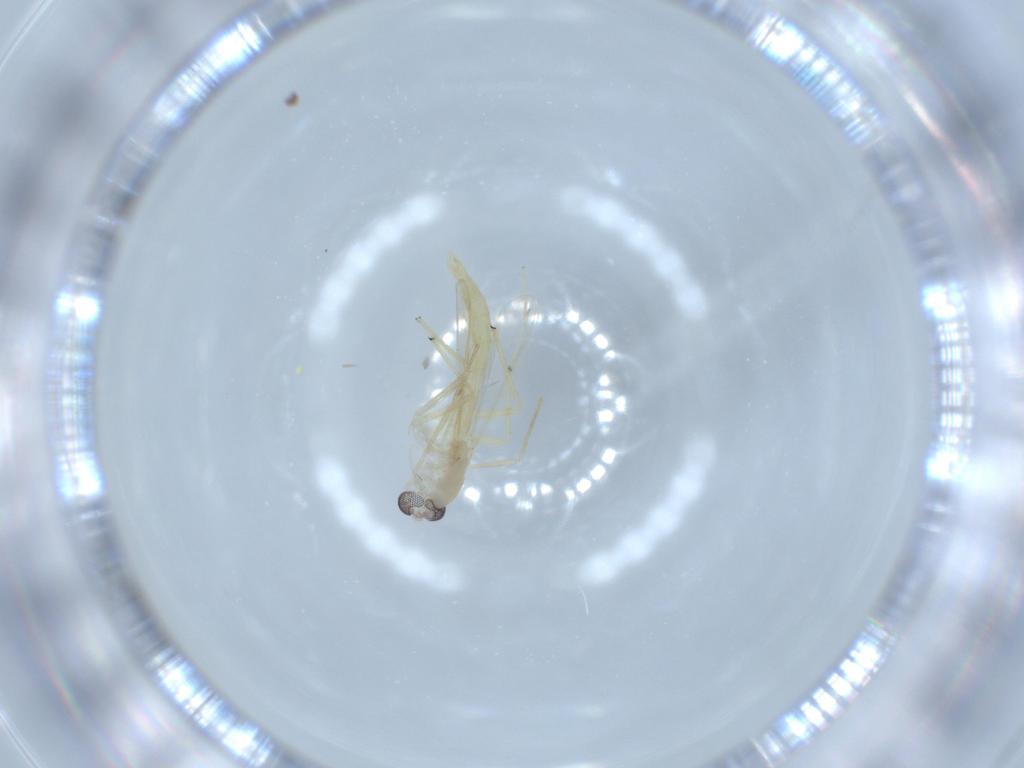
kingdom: Animalia
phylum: Arthropoda
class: Insecta
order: Diptera
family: Chironomidae
